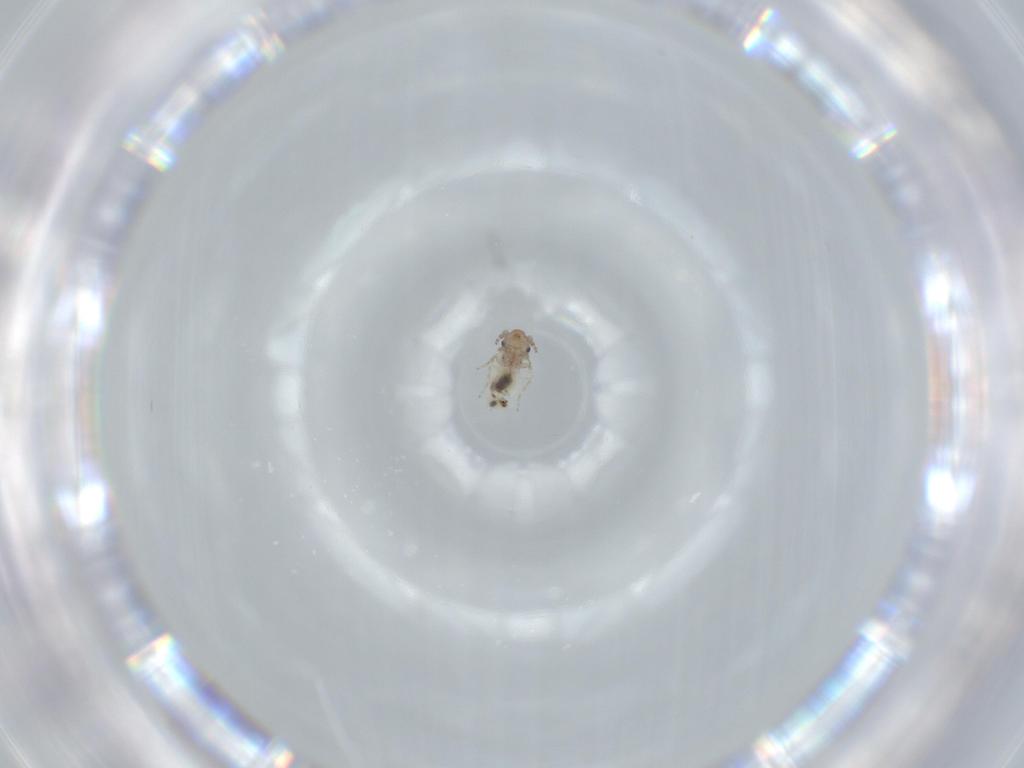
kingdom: Animalia
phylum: Arthropoda
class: Insecta
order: Psocodea
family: Lepidopsocidae
